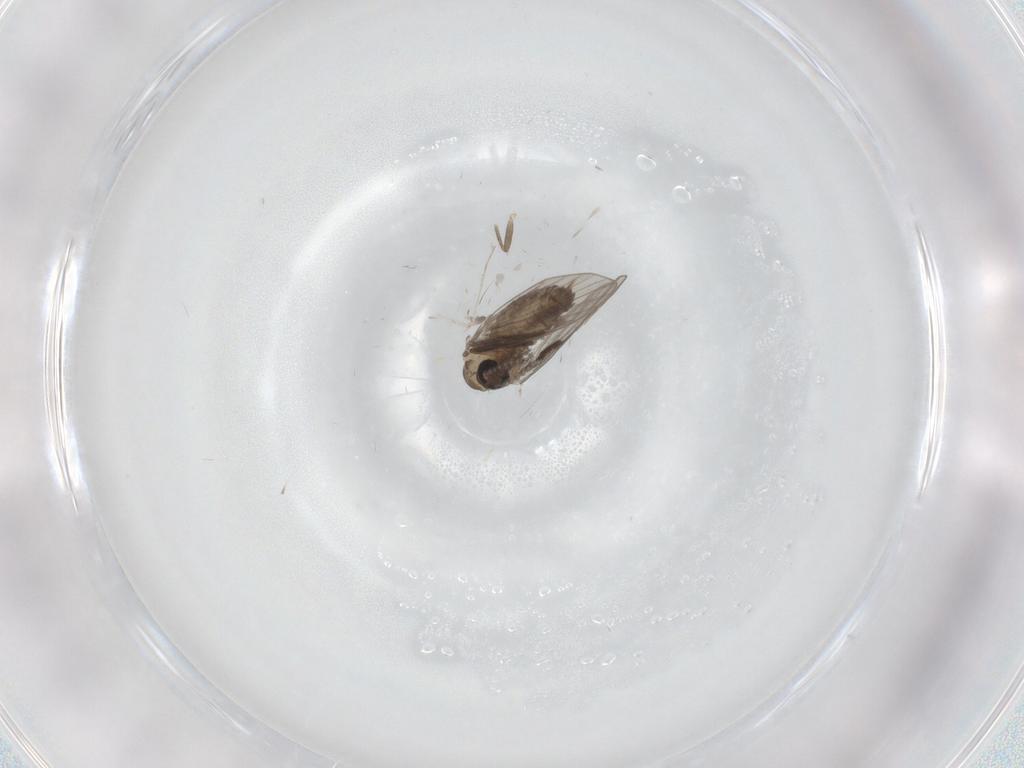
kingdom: Animalia
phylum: Arthropoda
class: Insecta
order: Diptera
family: Psychodidae
